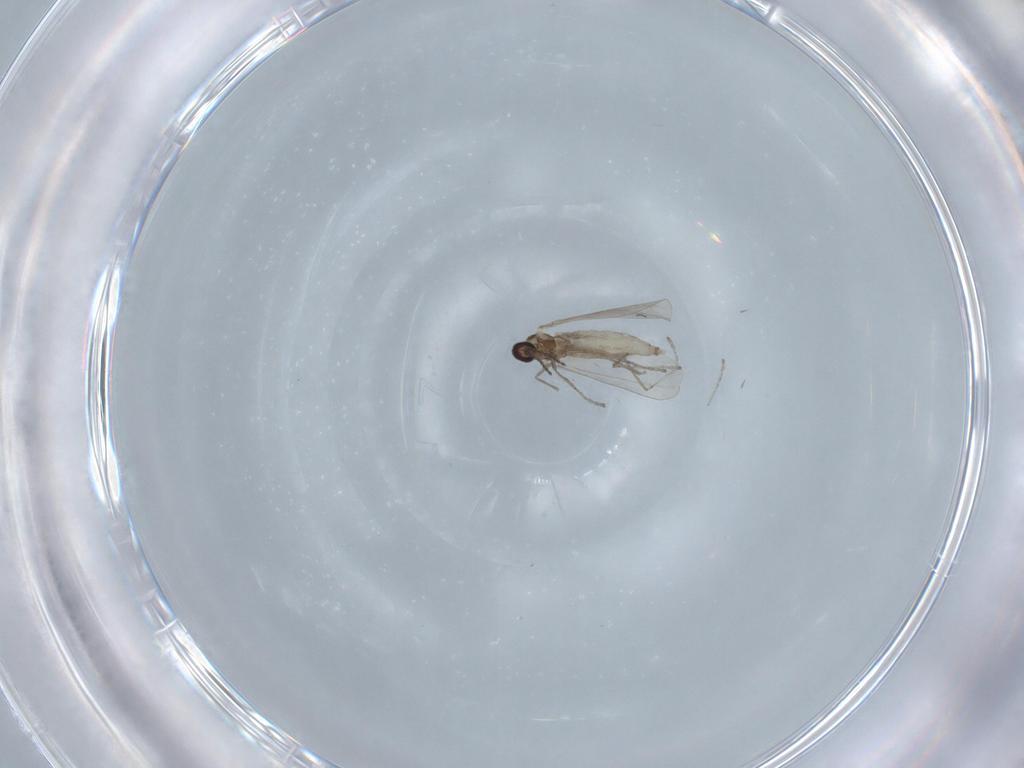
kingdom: Animalia
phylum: Arthropoda
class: Insecta
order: Diptera
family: Cecidomyiidae
